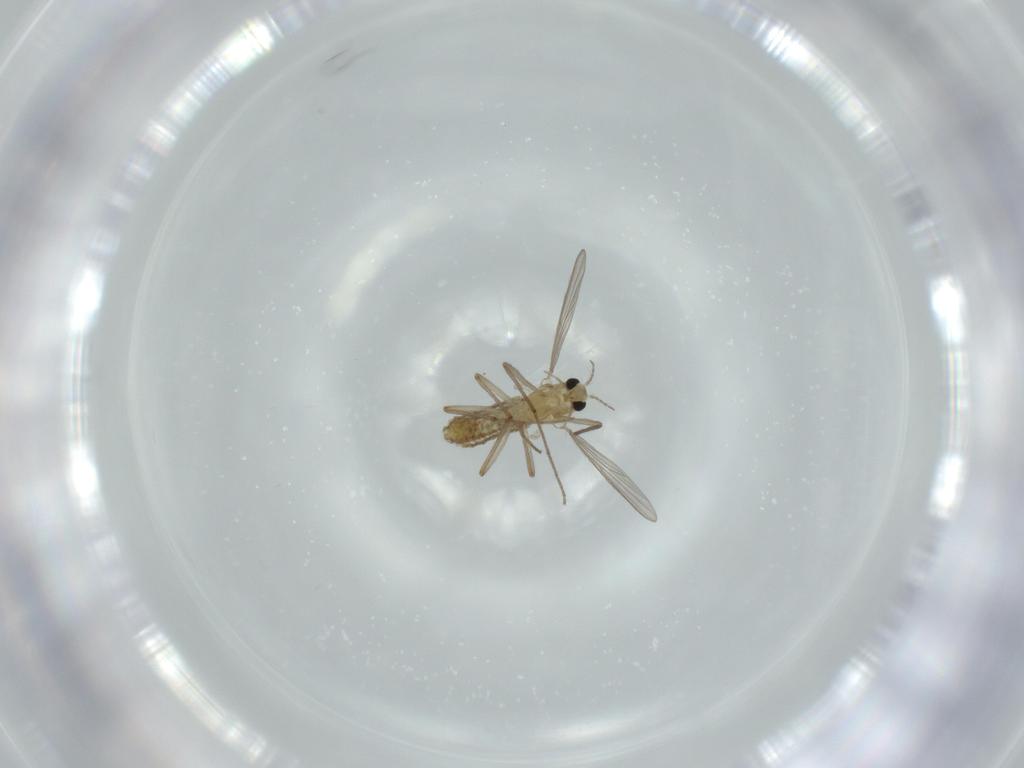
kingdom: Animalia
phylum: Arthropoda
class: Insecta
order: Diptera
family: Chironomidae
